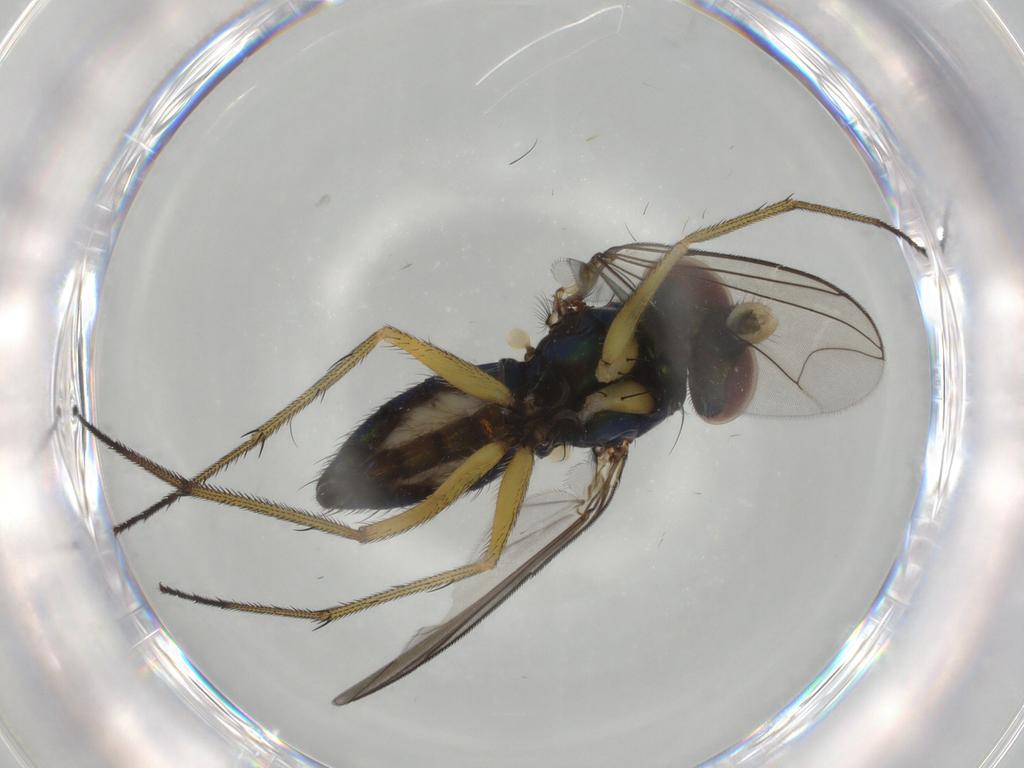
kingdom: Animalia
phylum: Arthropoda
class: Insecta
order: Diptera
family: Dolichopodidae
